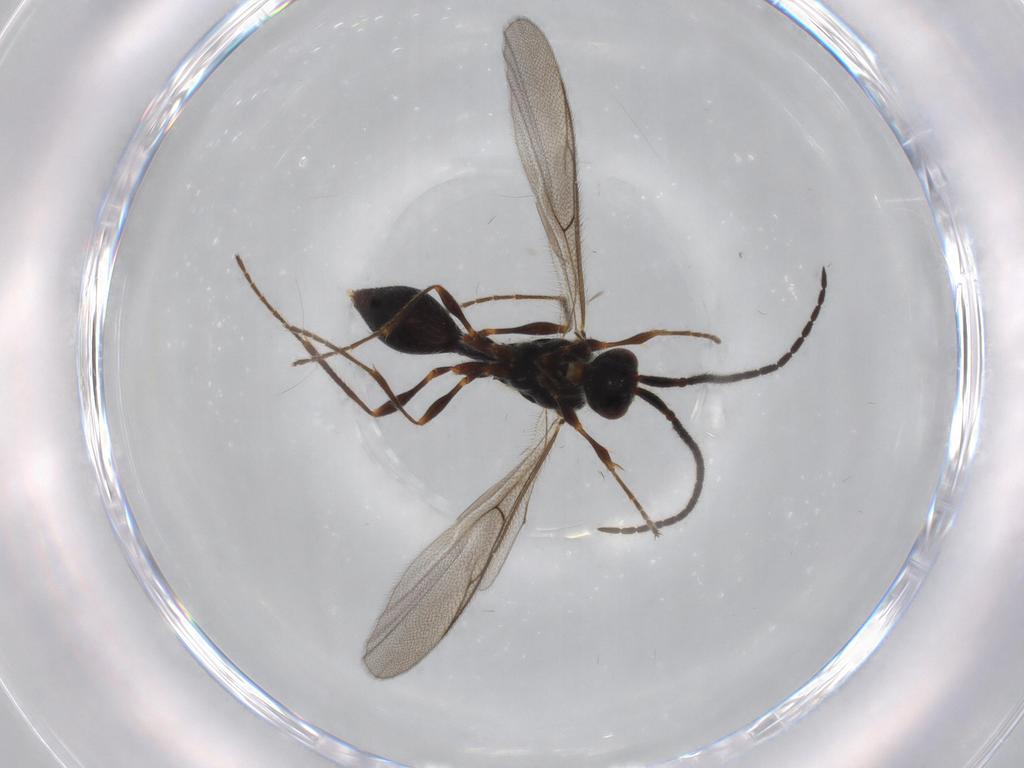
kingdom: Animalia
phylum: Arthropoda
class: Insecta
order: Hymenoptera
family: Diapriidae
